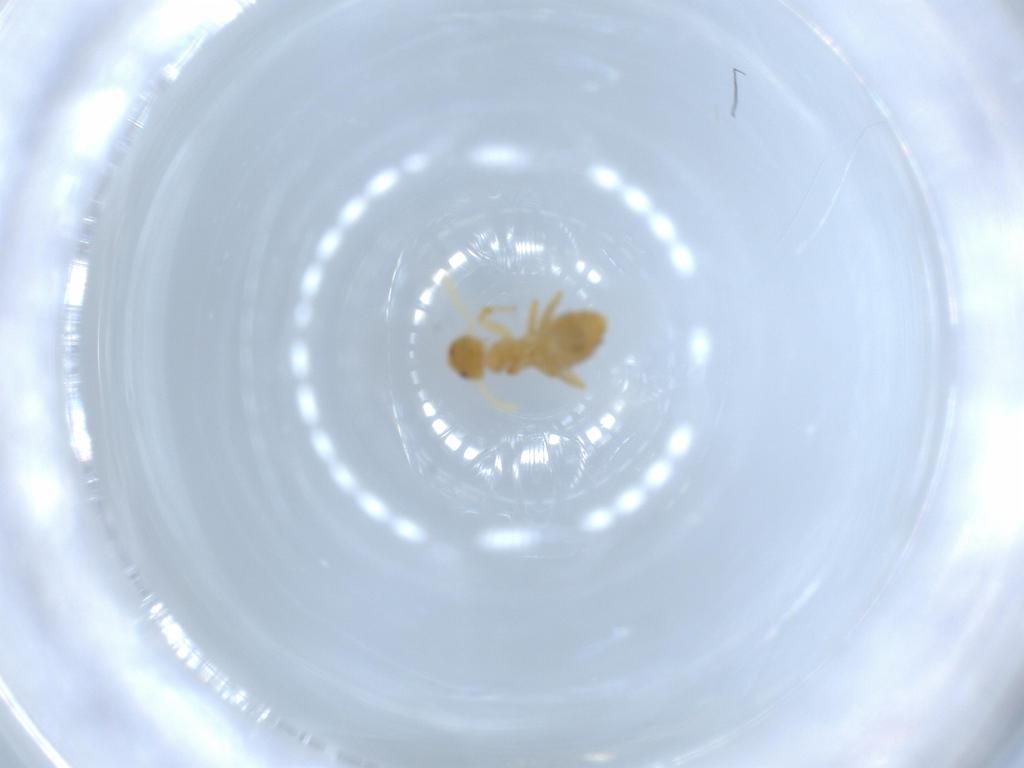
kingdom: Animalia
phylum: Arthropoda
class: Insecta
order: Hymenoptera
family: Formicidae
